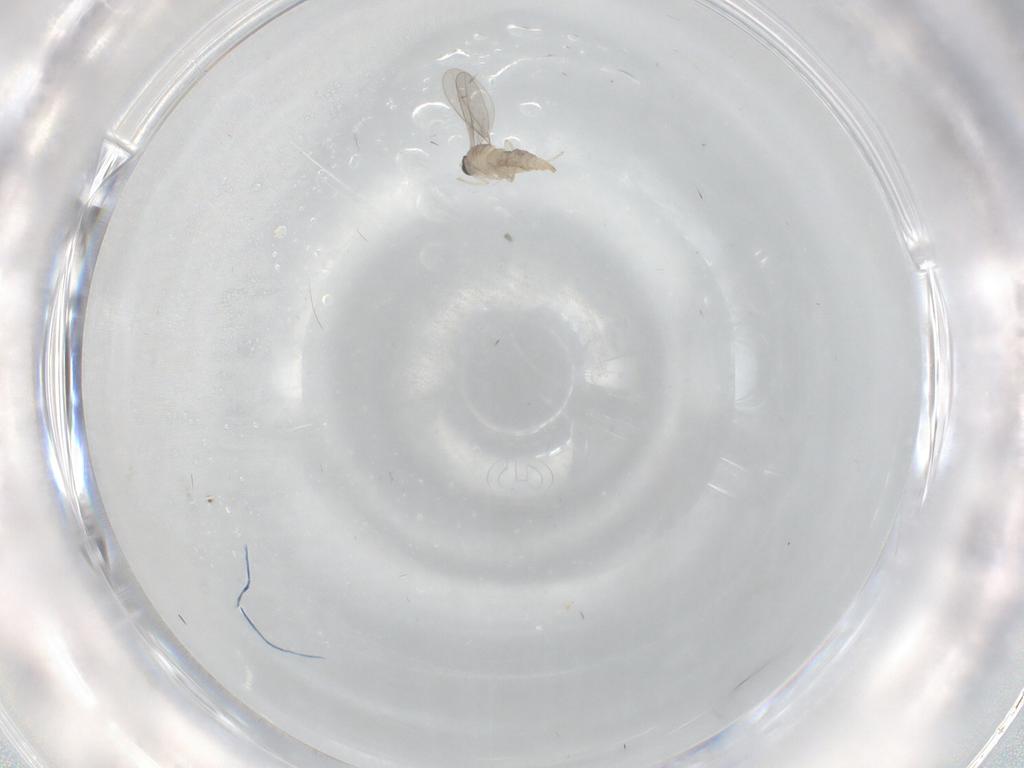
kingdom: Animalia
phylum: Arthropoda
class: Insecta
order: Diptera
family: Cecidomyiidae
